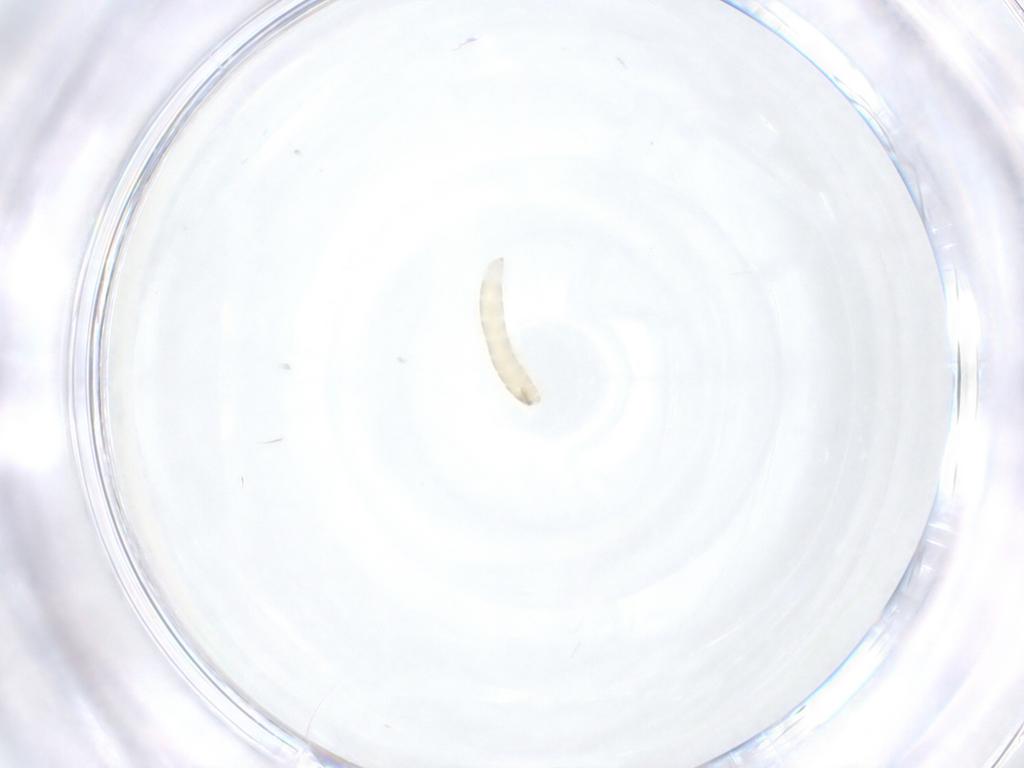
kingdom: Animalia
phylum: Arthropoda
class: Insecta
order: Diptera
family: Tachinidae
